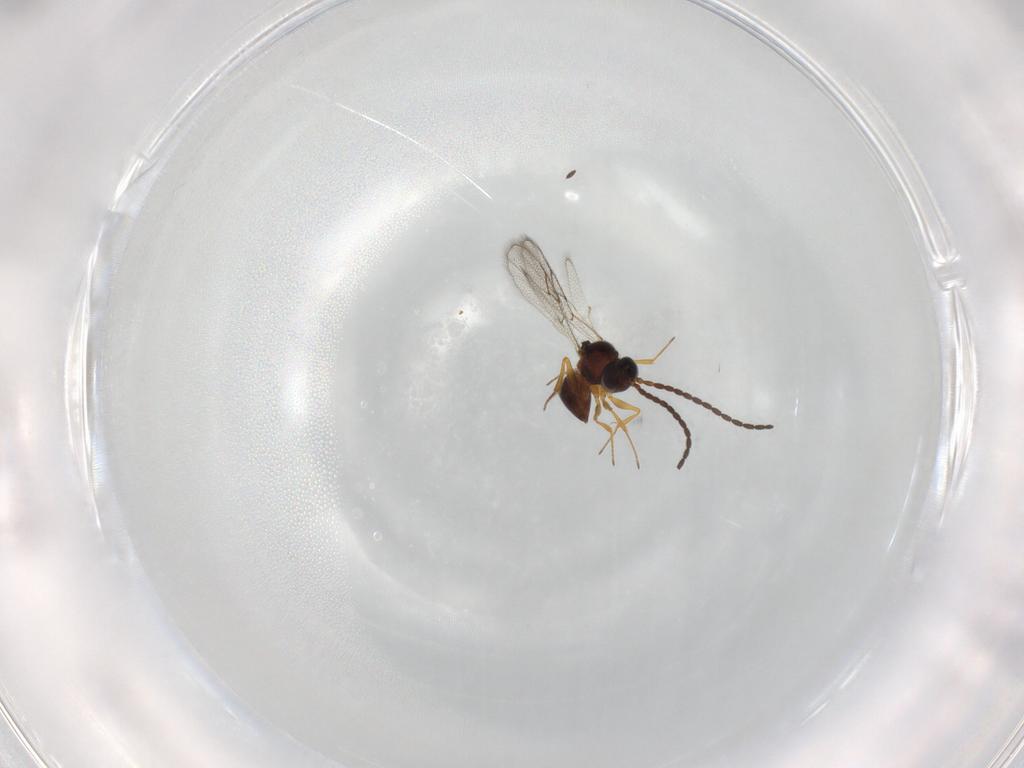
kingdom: Animalia
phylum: Arthropoda
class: Insecta
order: Hymenoptera
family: Figitidae
